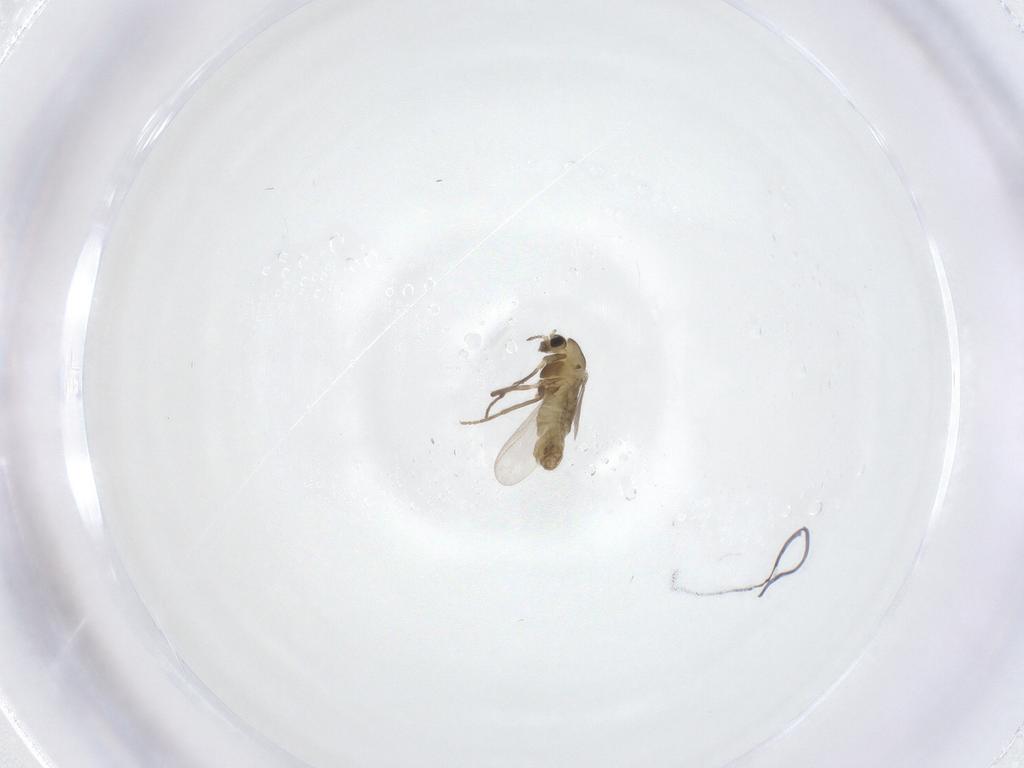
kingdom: Animalia
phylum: Arthropoda
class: Insecta
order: Diptera
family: Chironomidae
